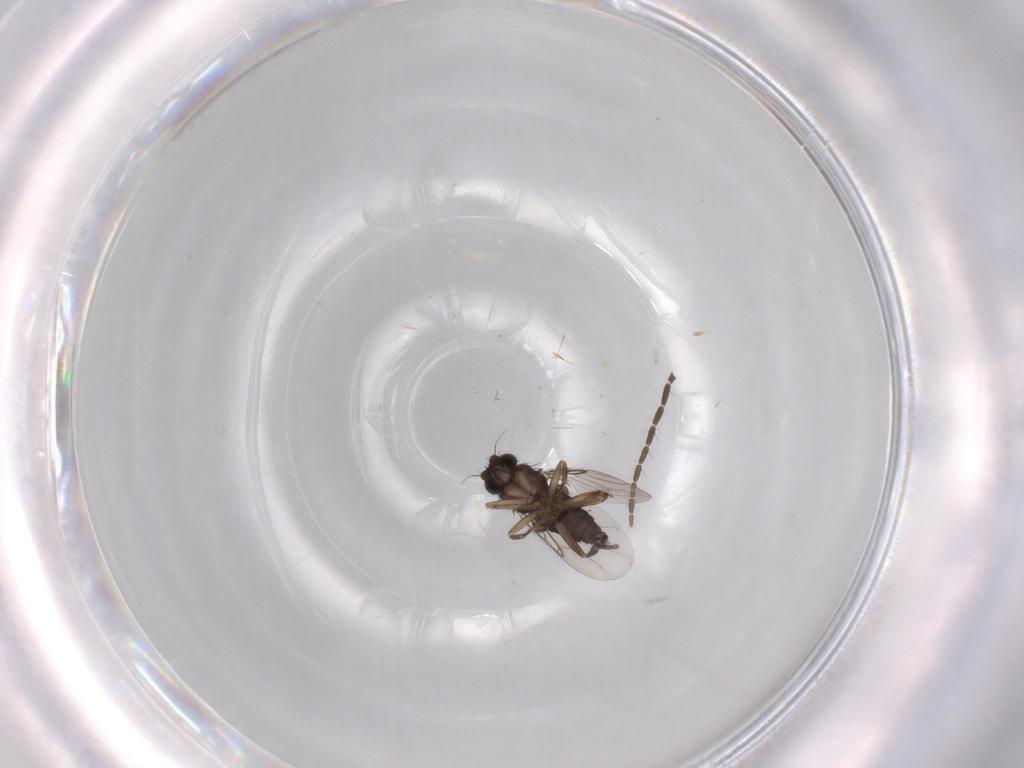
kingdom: Animalia
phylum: Arthropoda
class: Insecta
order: Diptera
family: Phoridae
